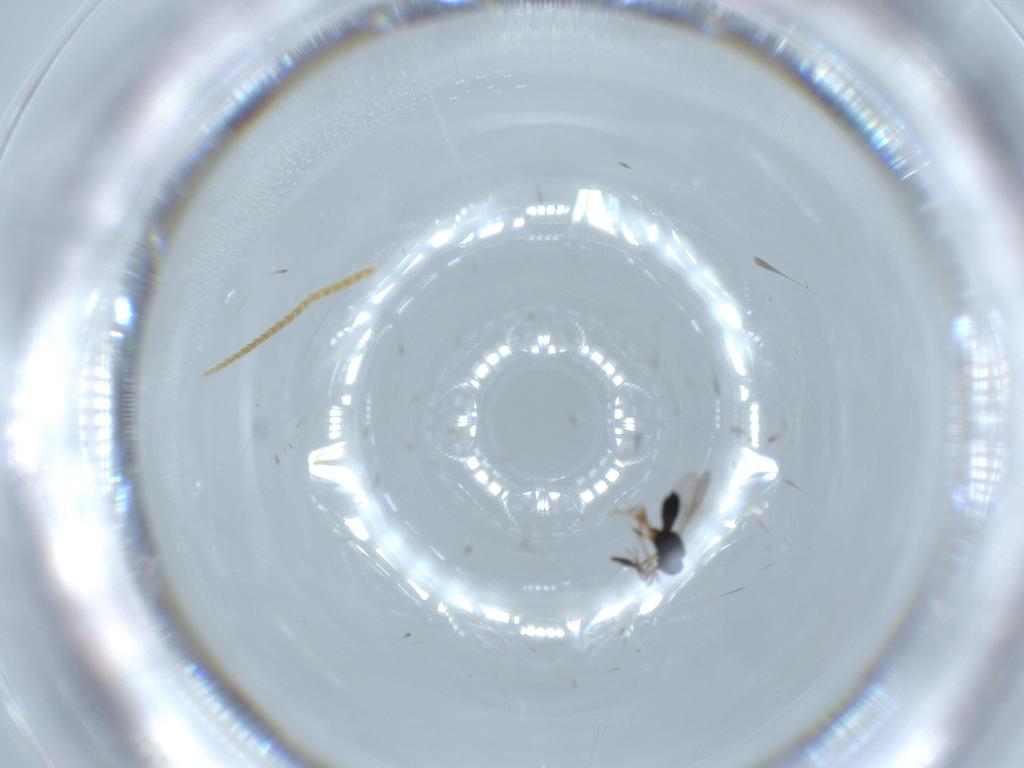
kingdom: Animalia
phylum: Arthropoda
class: Insecta
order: Hymenoptera
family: Scelionidae
